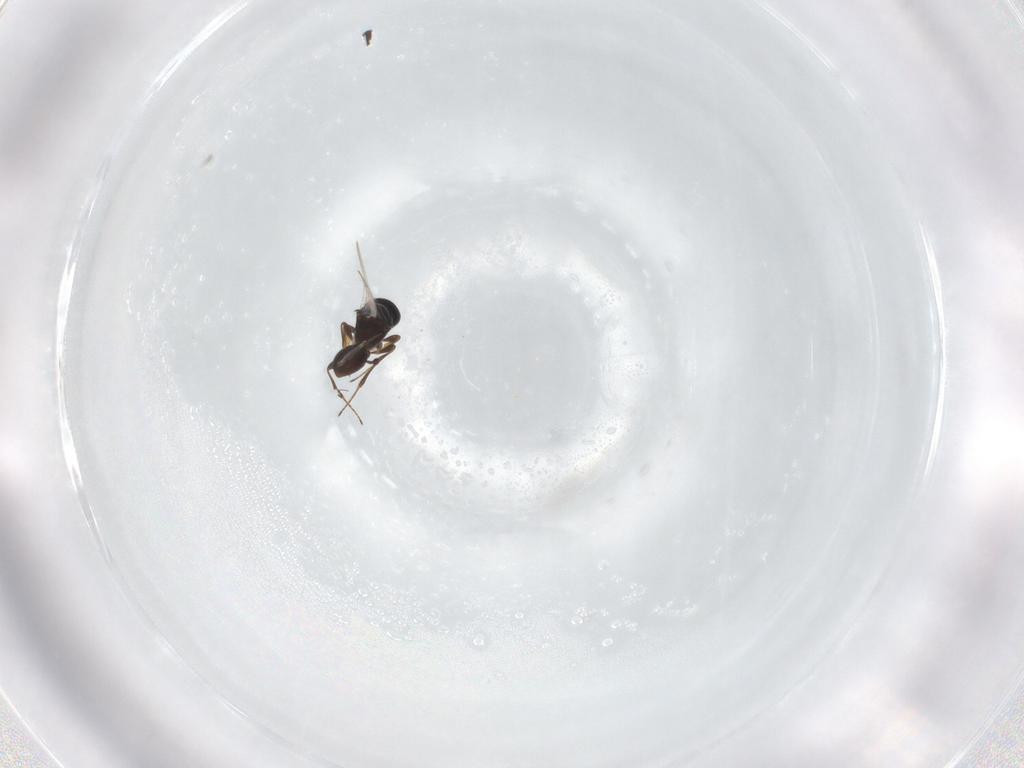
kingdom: Animalia
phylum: Arthropoda
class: Insecta
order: Hymenoptera
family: Platygastridae
